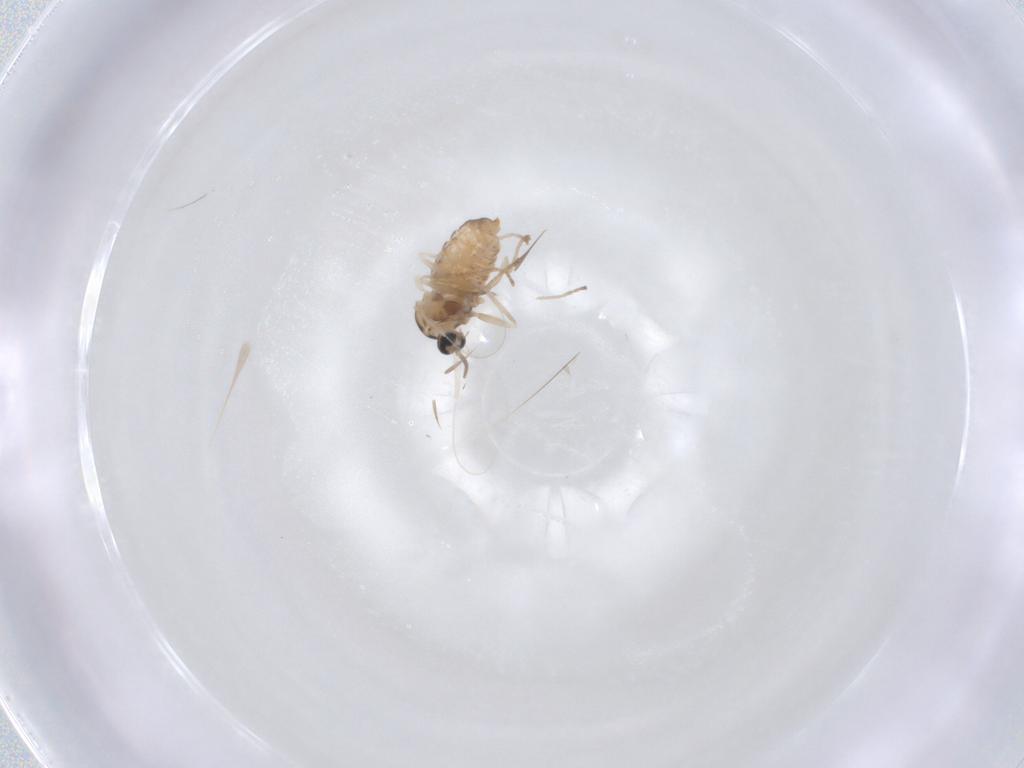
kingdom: Animalia
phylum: Arthropoda
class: Insecta
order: Diptera
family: Cecidomyiidae
